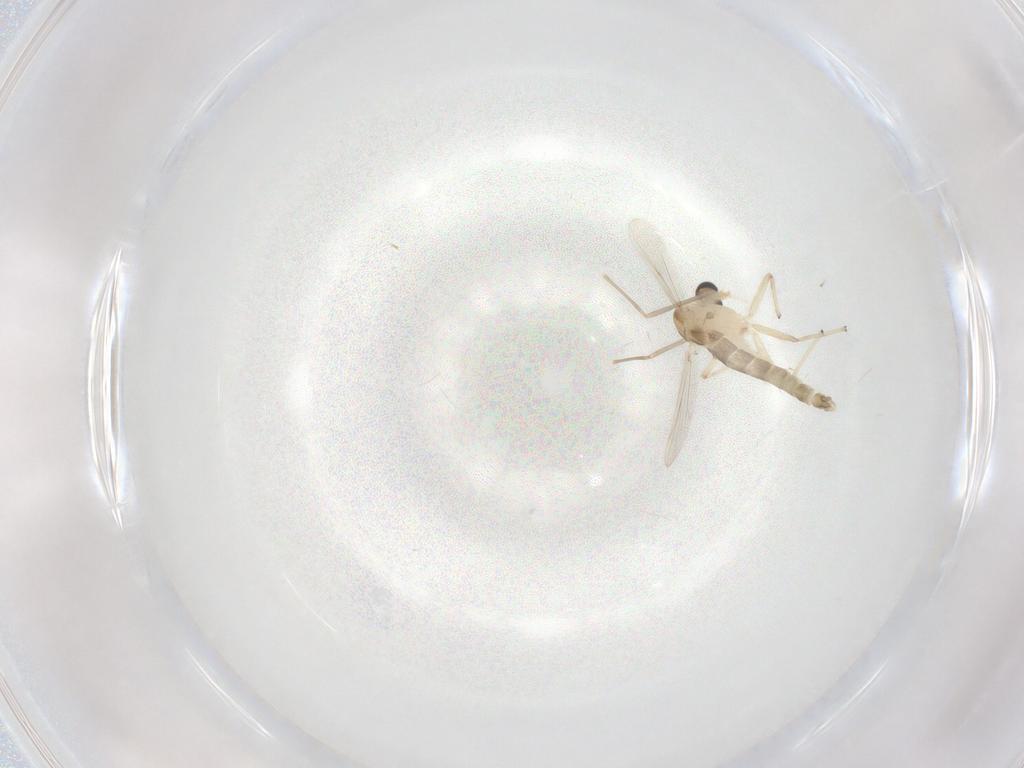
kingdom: Animalia
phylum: Arthropoda
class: Insecta
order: Diptera
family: Chironomidae
